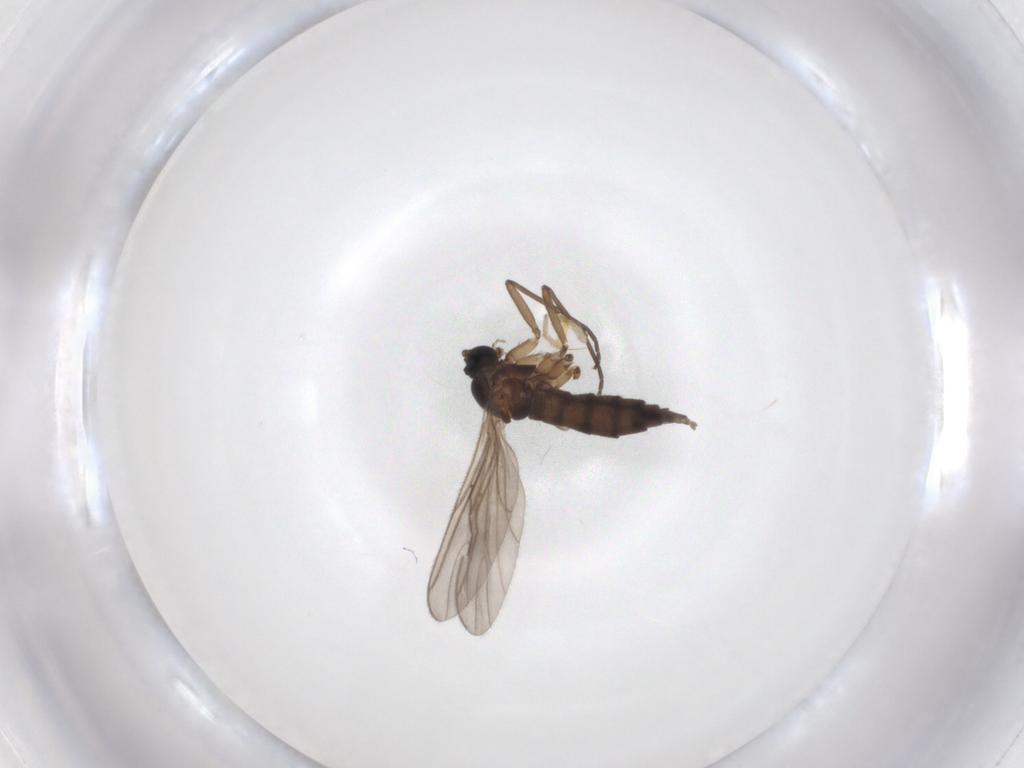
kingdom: Animalia
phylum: Arthropoda
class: Insecta
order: Diptera
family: Sciaridae
